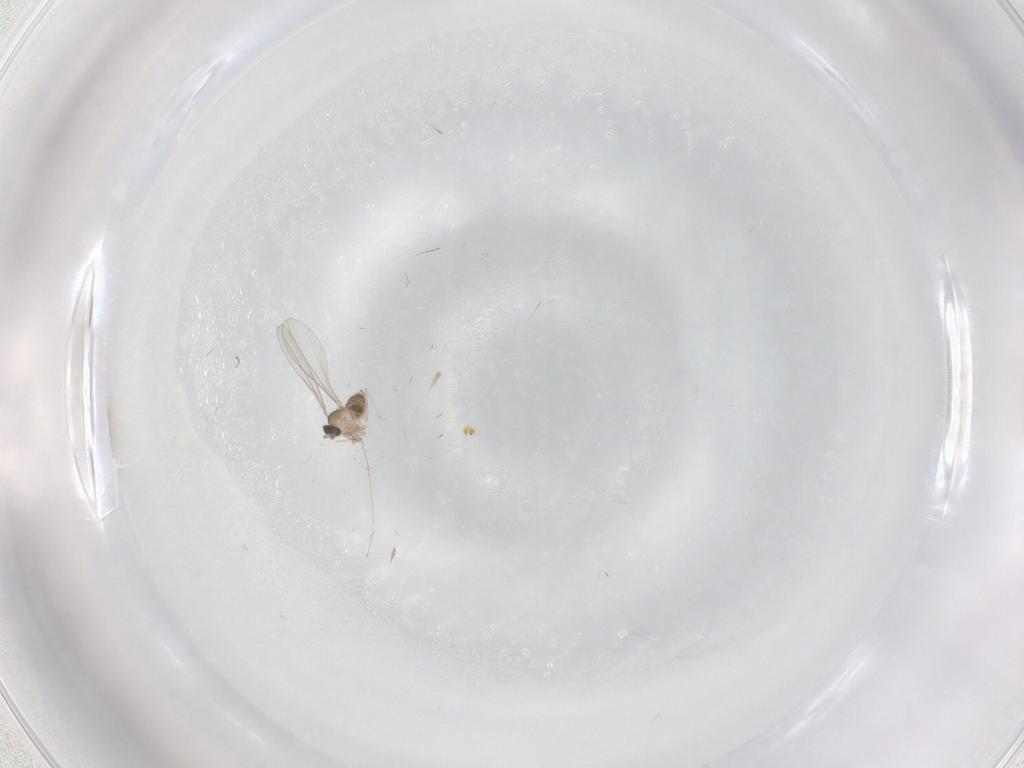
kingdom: Animalia
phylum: Arthropoda
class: Insecta
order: Diptera
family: Cecidomyiidae
